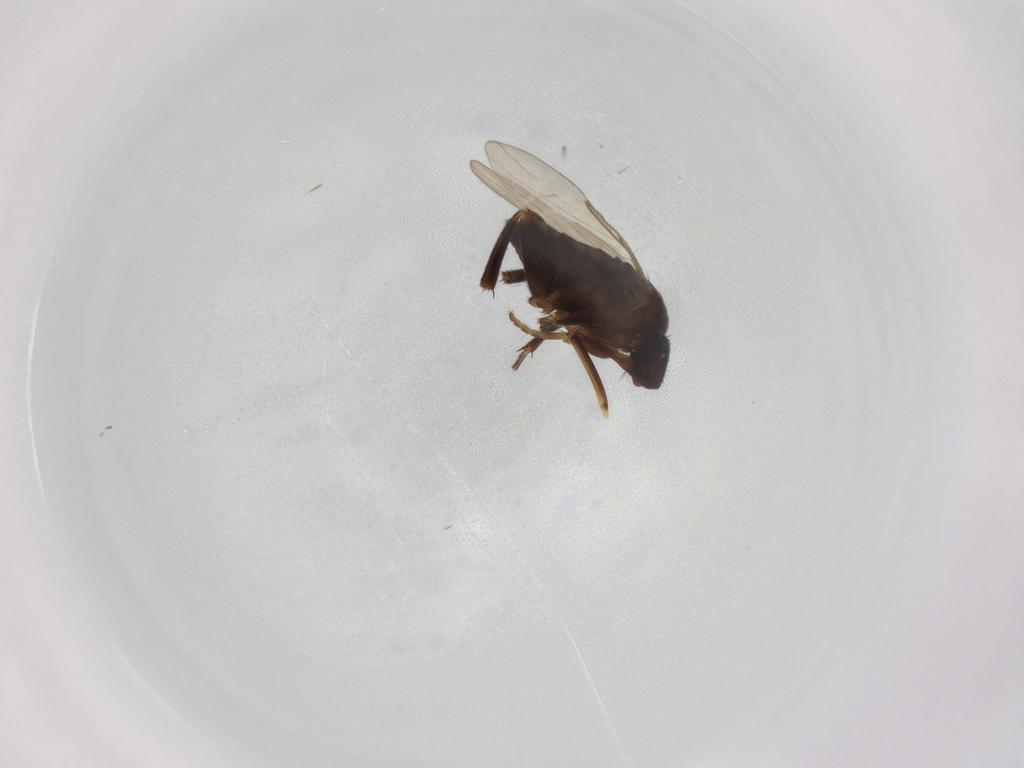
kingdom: Animalia
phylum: Arthropoda
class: Insecta
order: Diptera
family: Phoridae
